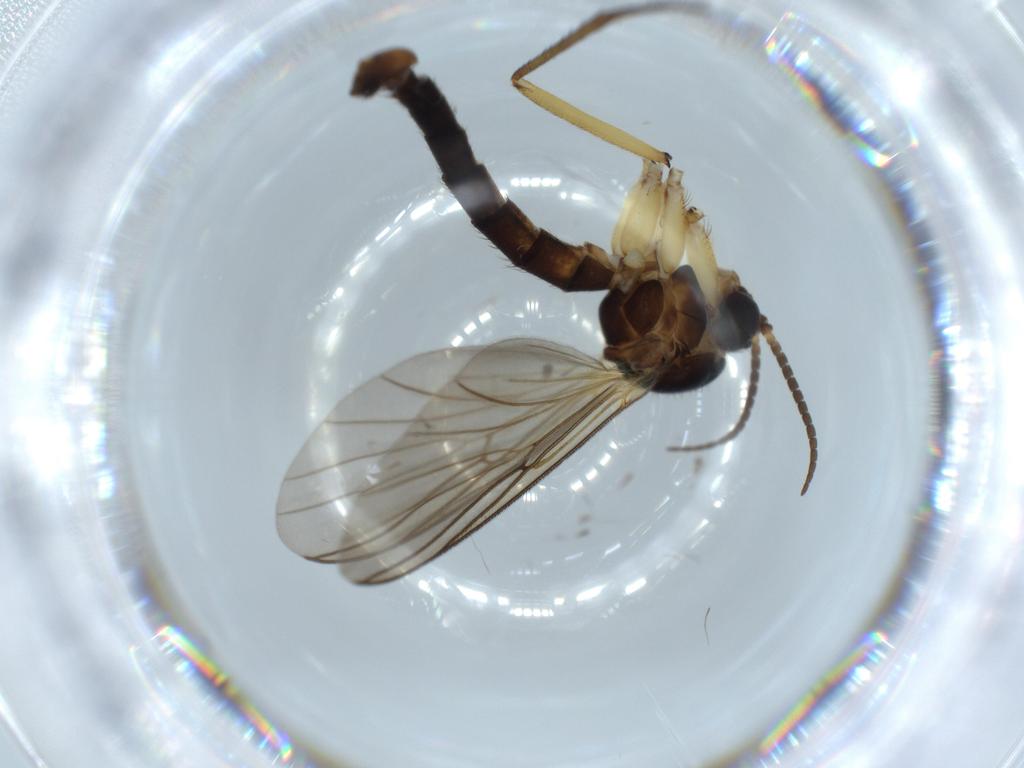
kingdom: Animalia
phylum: Arthropoda
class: Insecta
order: Diptera
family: Mycetophilidae
